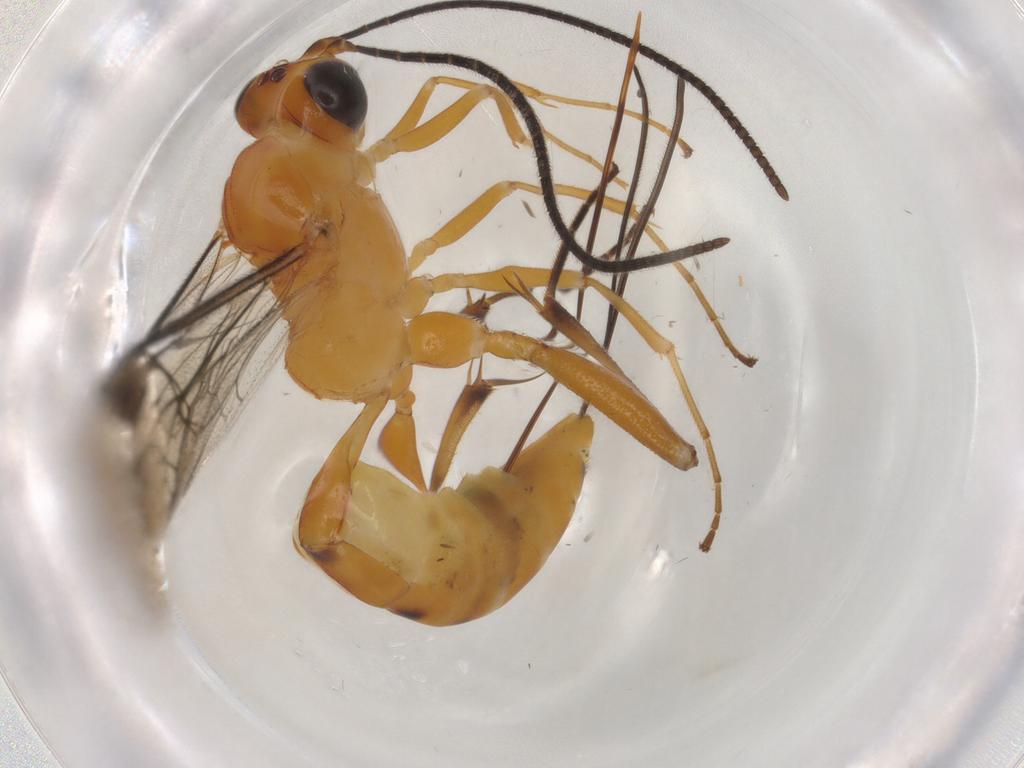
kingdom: Animalia
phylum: Arthropoda
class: Insecta
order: Hymenoptera
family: Ichneumonidae
